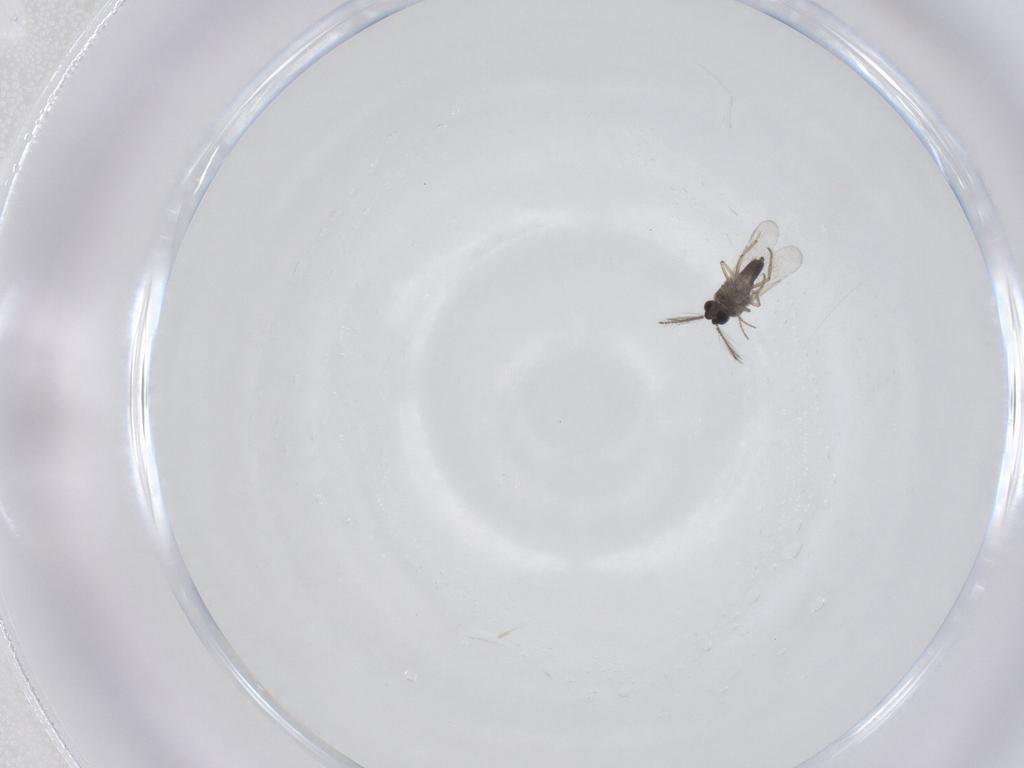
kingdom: Animalia
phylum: Arthropoda
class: Insecta
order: Diptera
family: Ceratopogonidae
